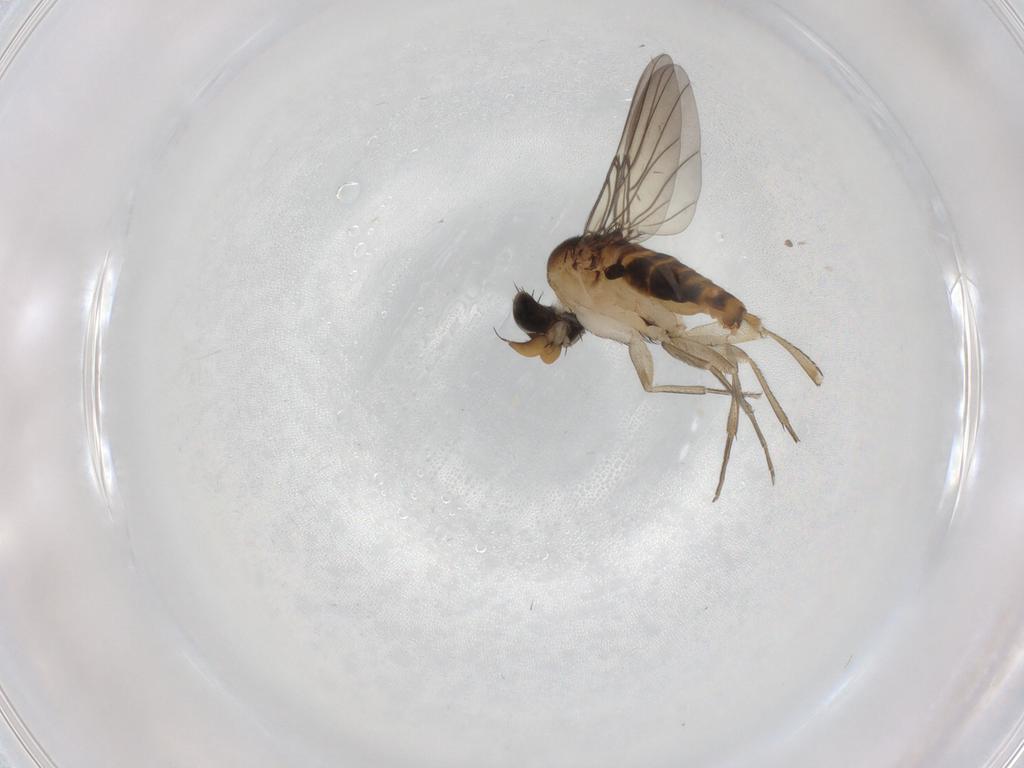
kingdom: Animalia
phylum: Arthropoda
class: Insecta
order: Diptera
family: Phoridae
